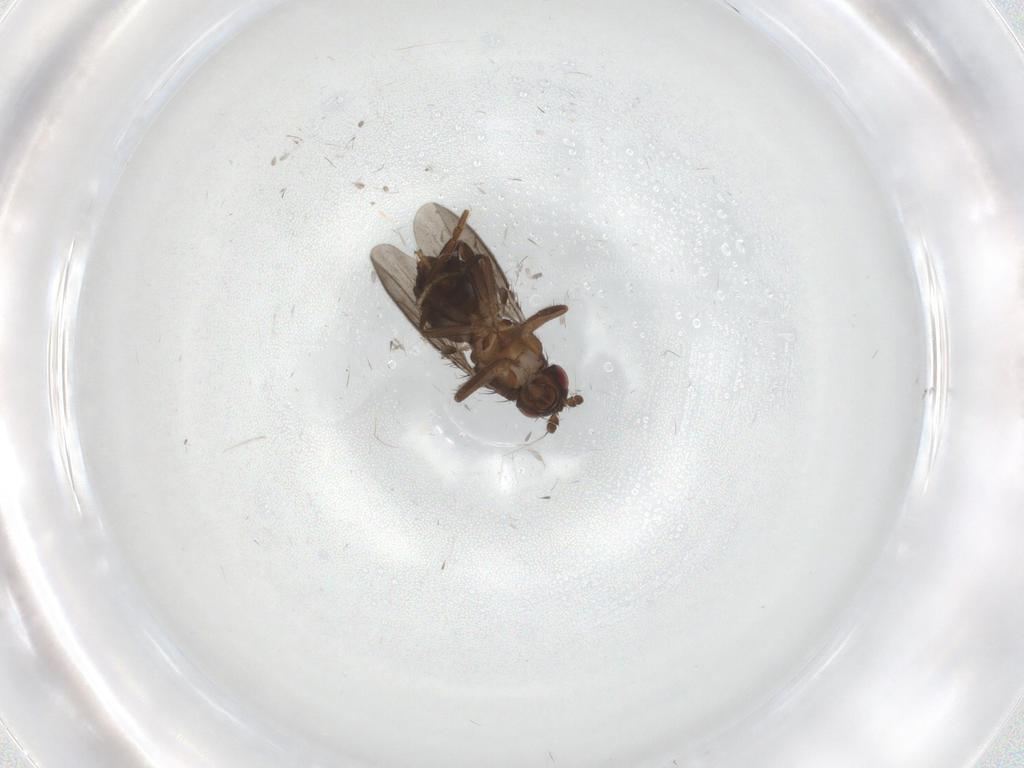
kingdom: Animalia
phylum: Arthropoda
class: Insecta
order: Diptera
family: Sphaeroceridae
